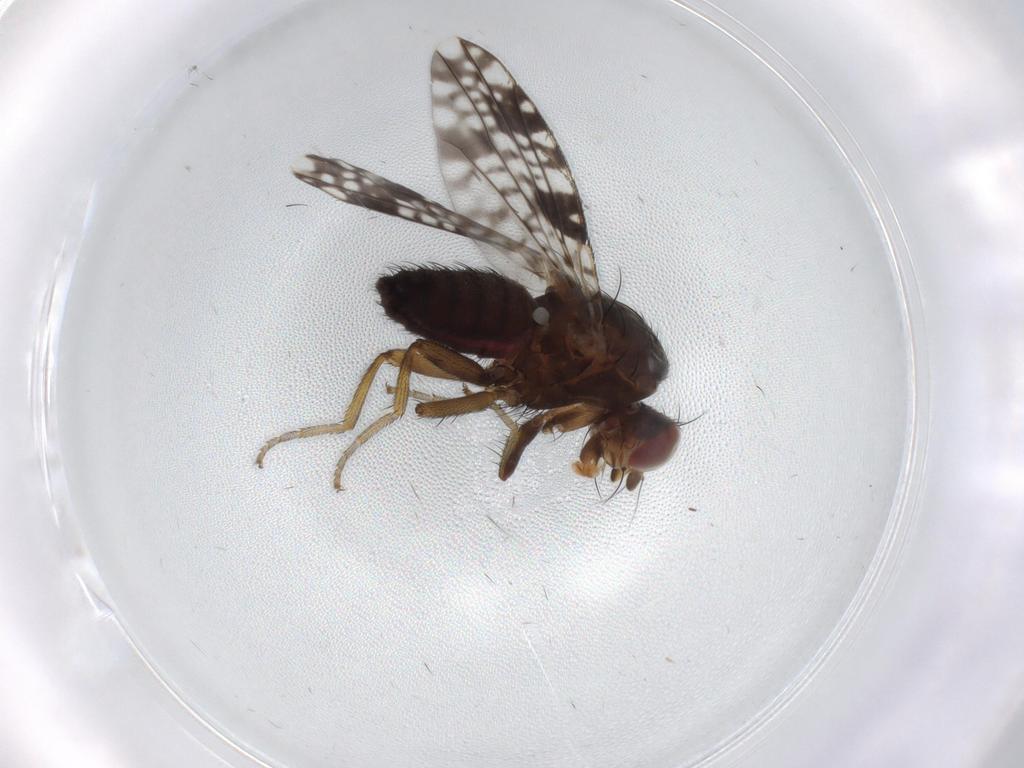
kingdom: Animalia
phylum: Arthropoda
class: Insecta
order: Diptera
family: Tephritidae
